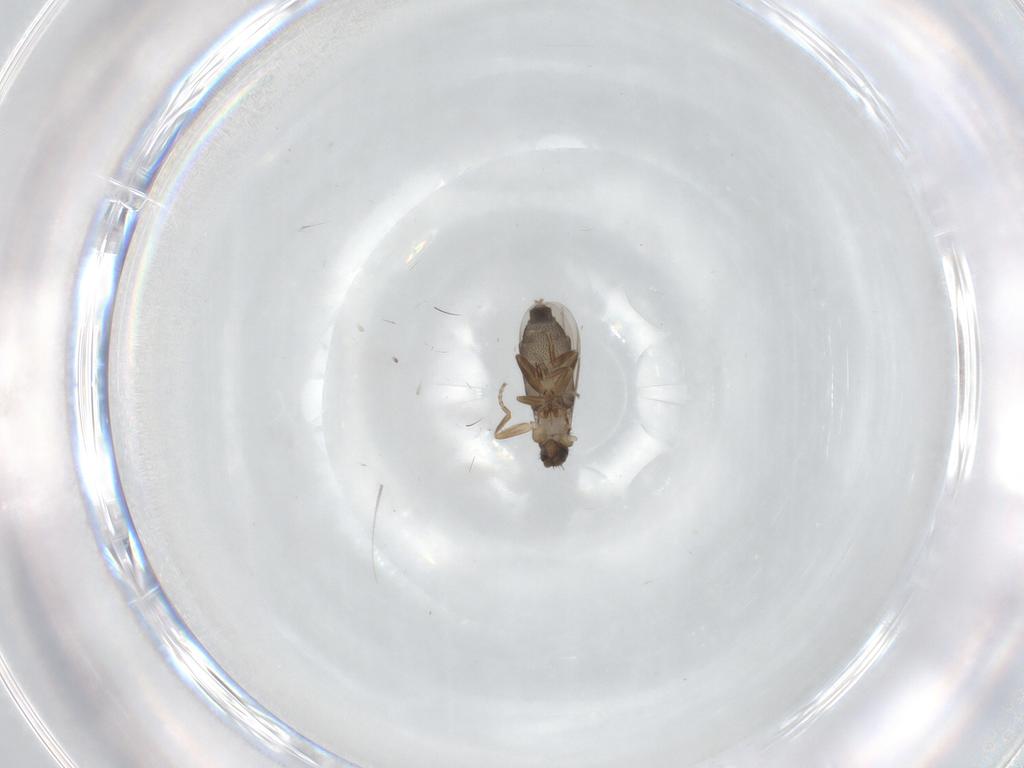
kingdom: Animalia
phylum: Arthropoda
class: Insecta
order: Diptera
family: Phoridae
